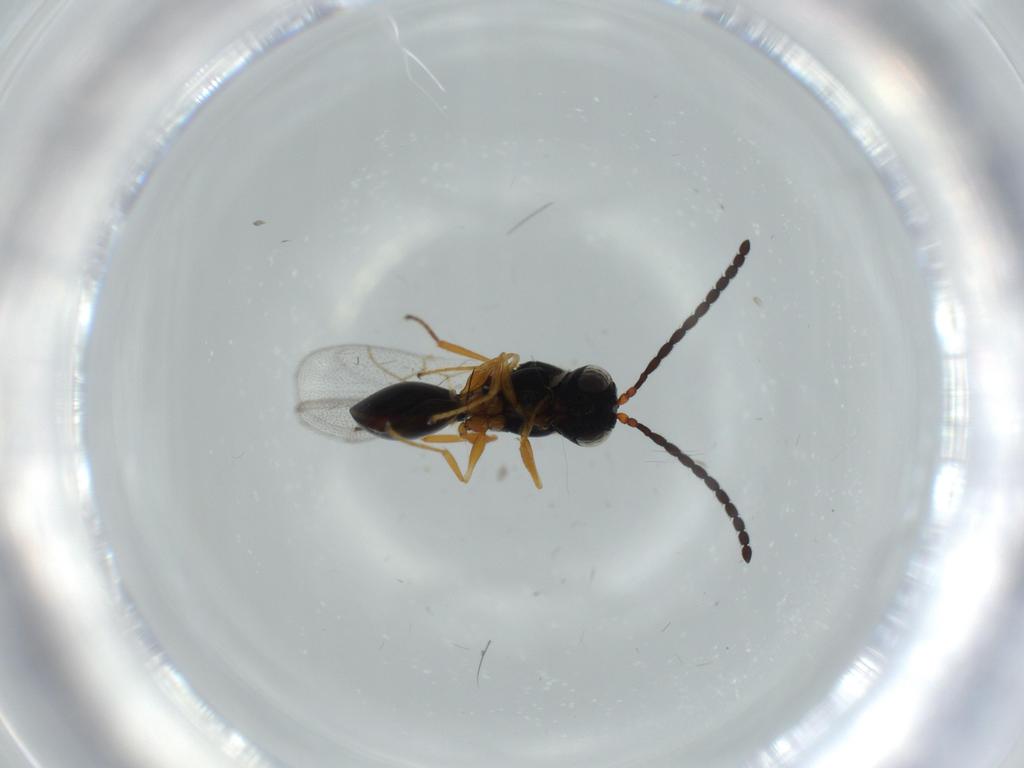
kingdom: Animalia
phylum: Arthropoda
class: Insecta
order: Hymenoptera
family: Figitidae
